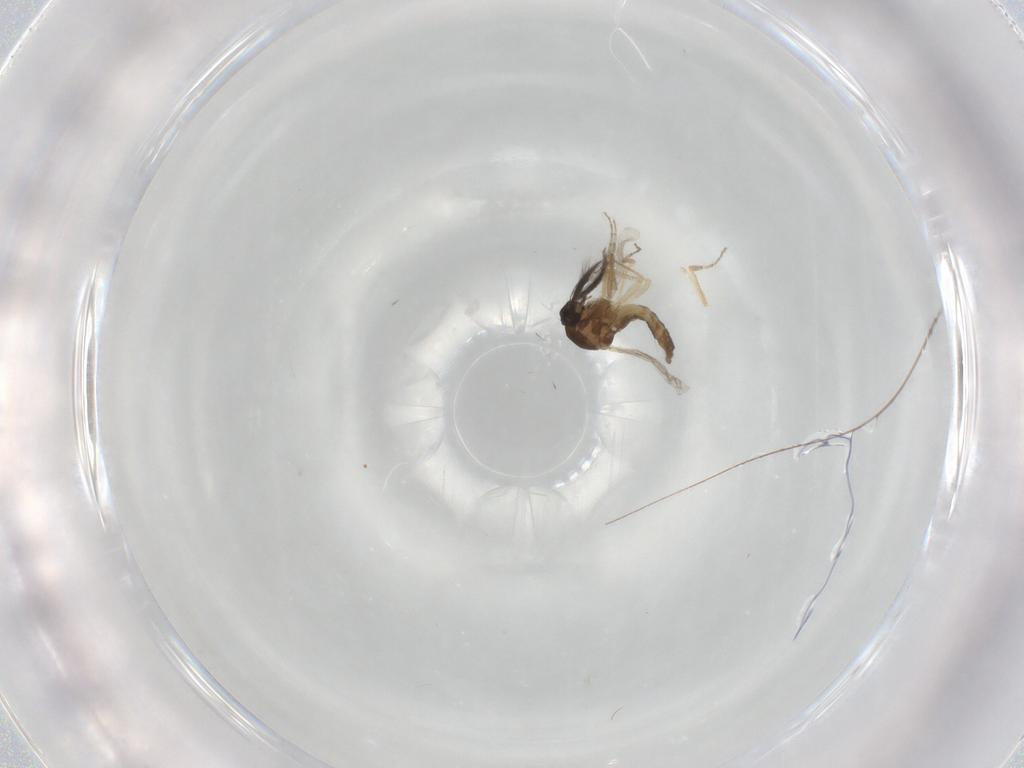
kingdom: Animalia
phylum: Arthropoda
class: Insecta
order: Diptera
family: Ceratopogonidae
